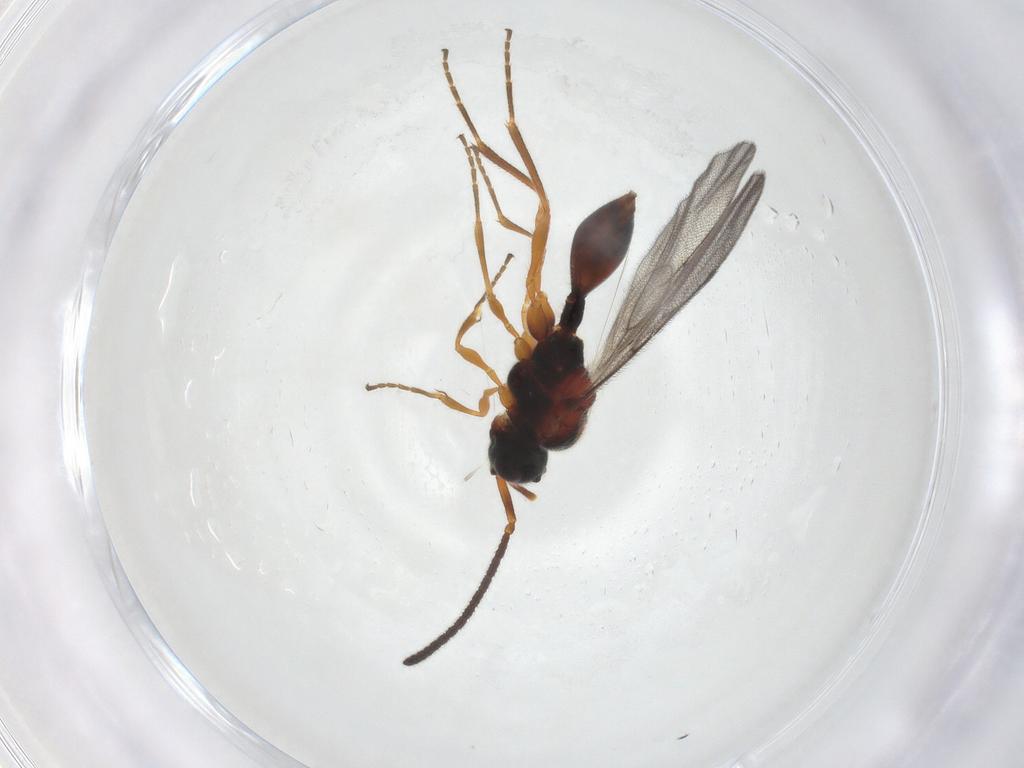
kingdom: Animalia
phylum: Arthropoda
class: Insecta
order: Hymenoptera
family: Diapriidae
